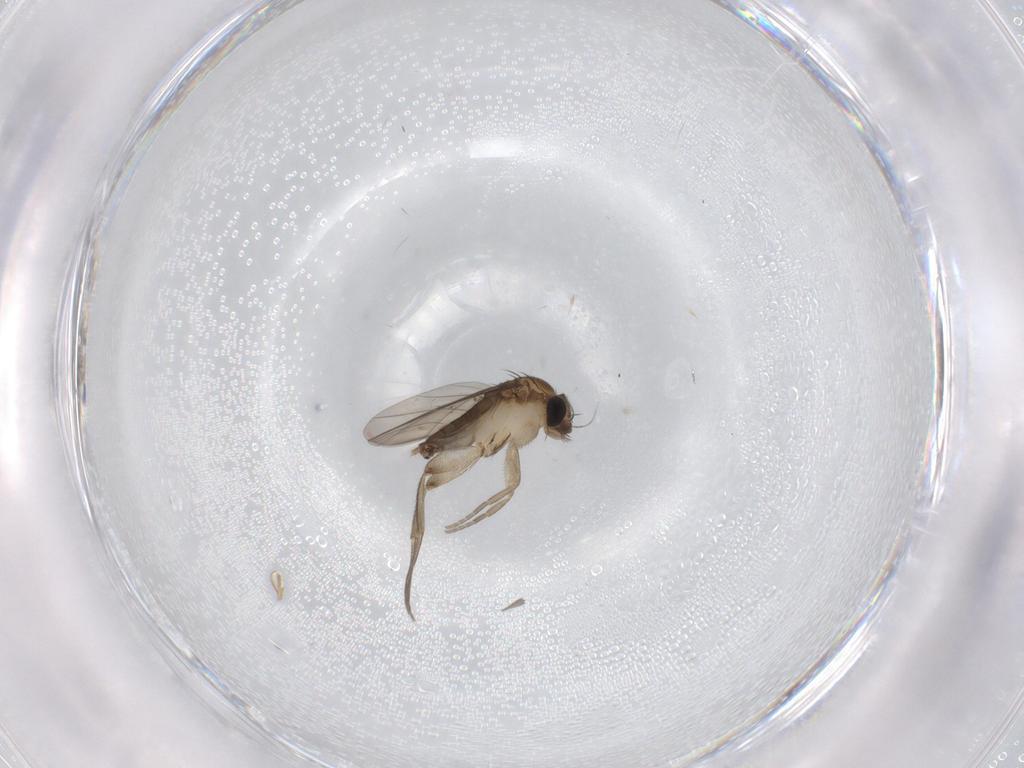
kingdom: Animalia
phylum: Arthropoda
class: Insecta
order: Diptera
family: Phoridae
